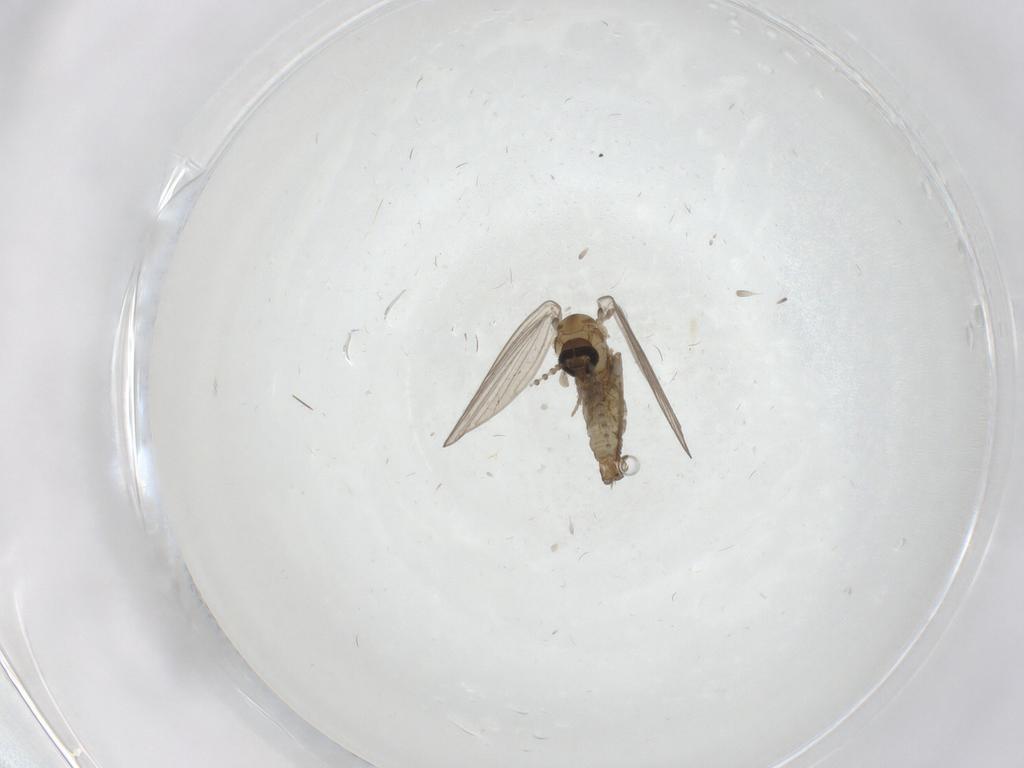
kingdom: Animalia
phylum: Arthropoda
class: Insecta
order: Diptera
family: Psychodidae
